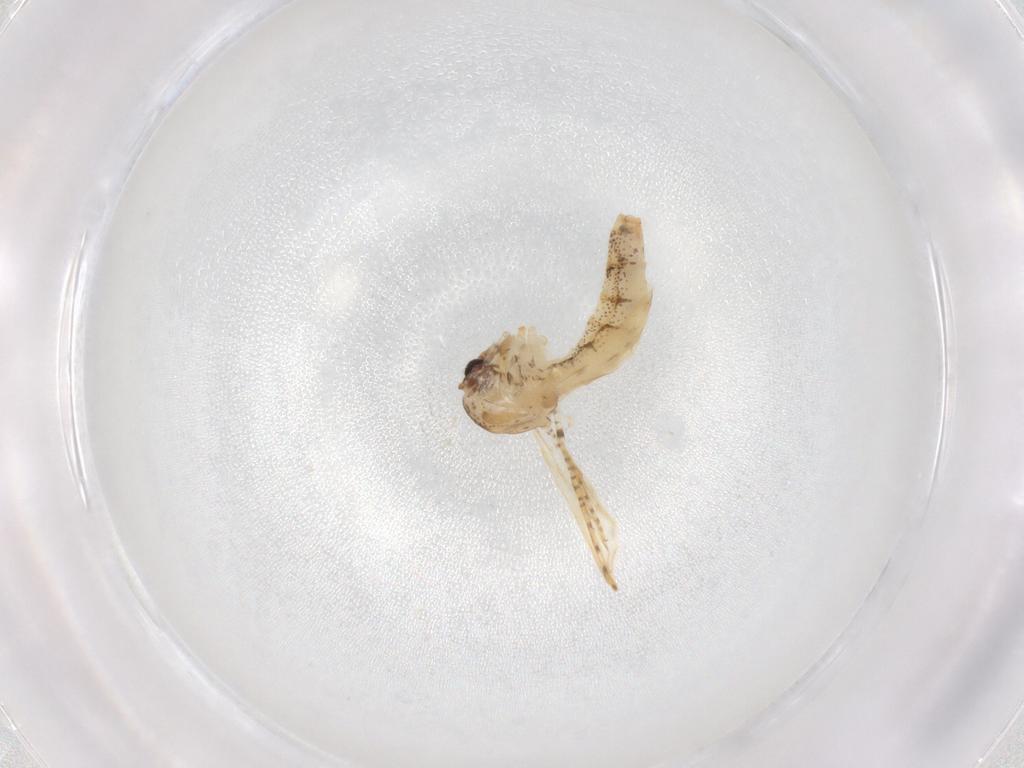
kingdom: Animalia
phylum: Arthropoda
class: Insecta
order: Diptera
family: Chaoboridae
